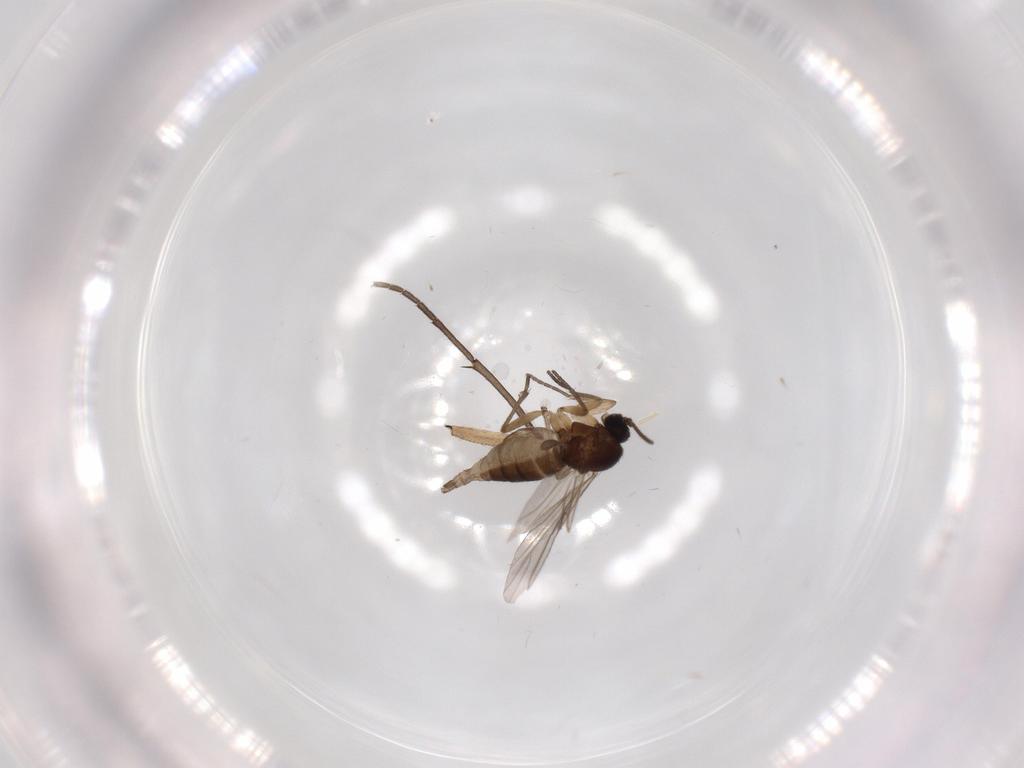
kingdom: Animalia
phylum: Arthropoda
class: Insecta
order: Diptera
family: Sciaridae
